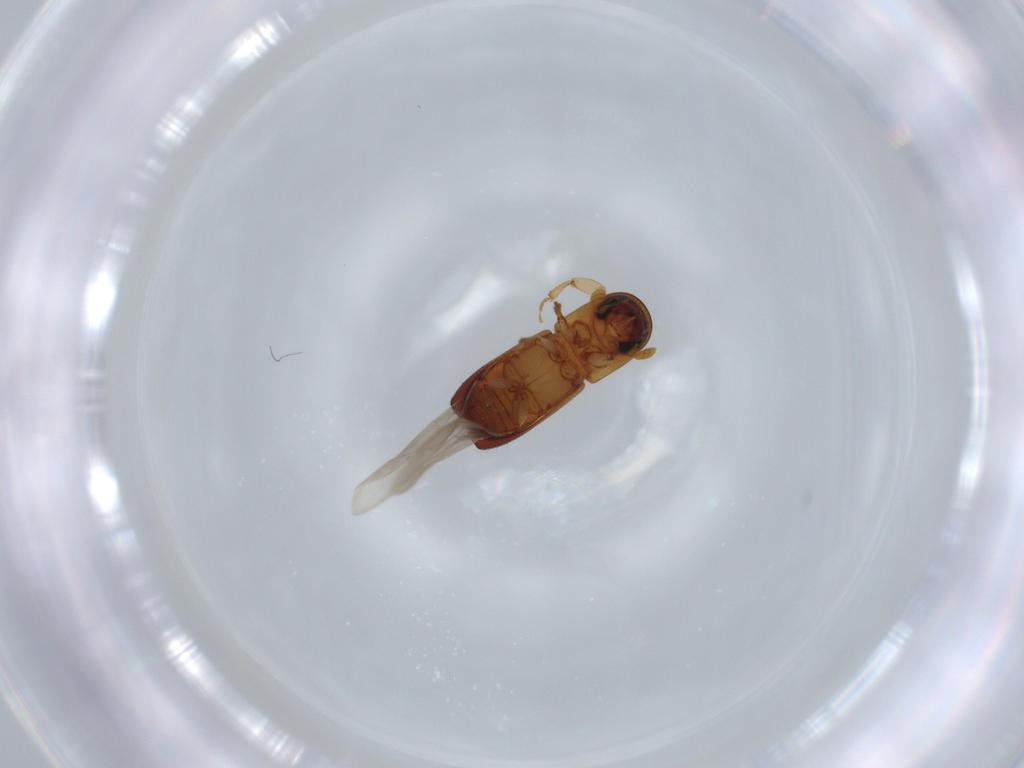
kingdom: Animalia
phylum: Arthropoda
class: Insecta
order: Coleoptera
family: Curculionidae
